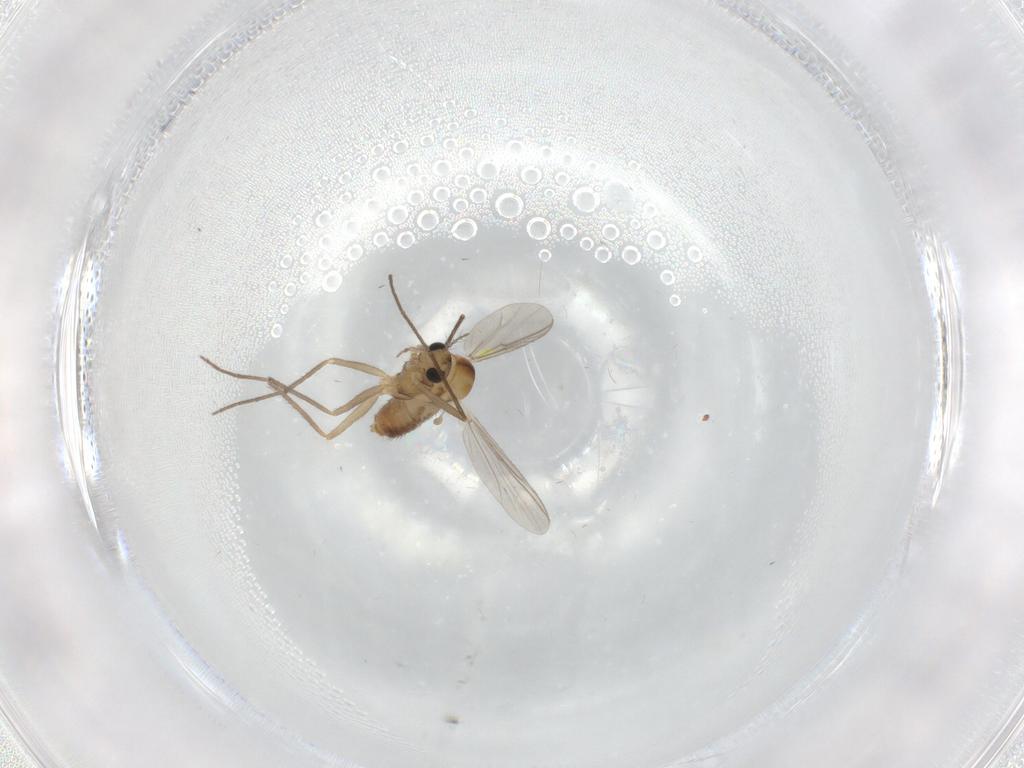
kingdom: Animalia
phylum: Arthropoda
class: Insecta
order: Diptera
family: Chironomidae
